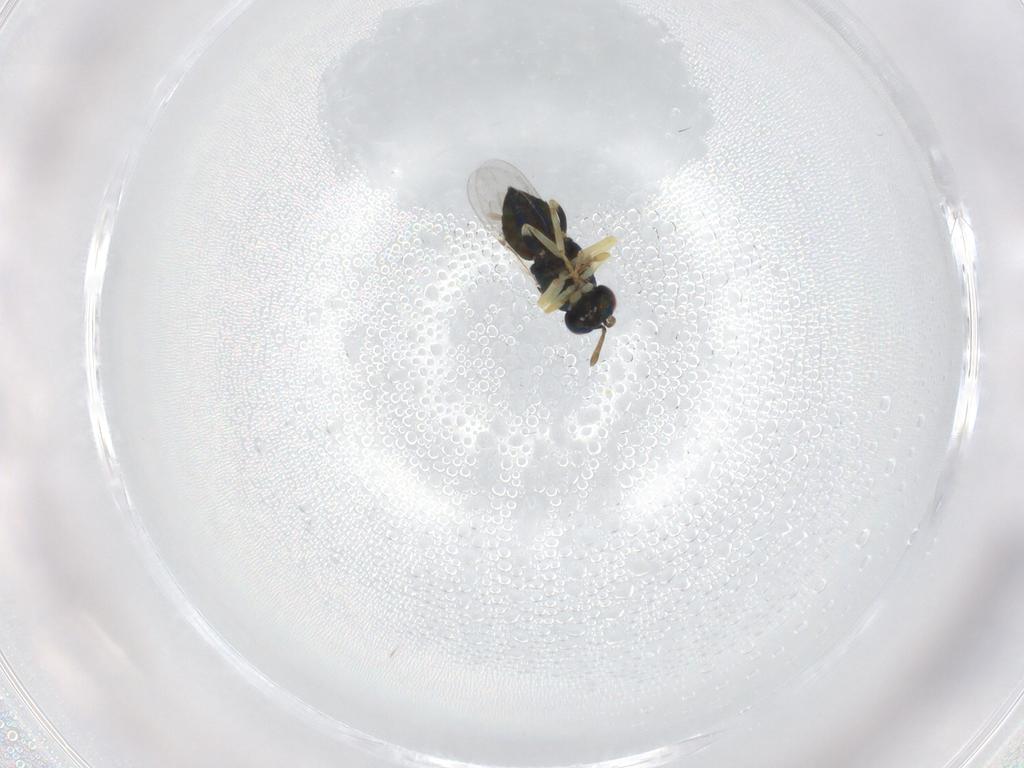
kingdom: Animalia
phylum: Arthropoda
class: Insecta
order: Hymenoptera
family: Encyrtidae
